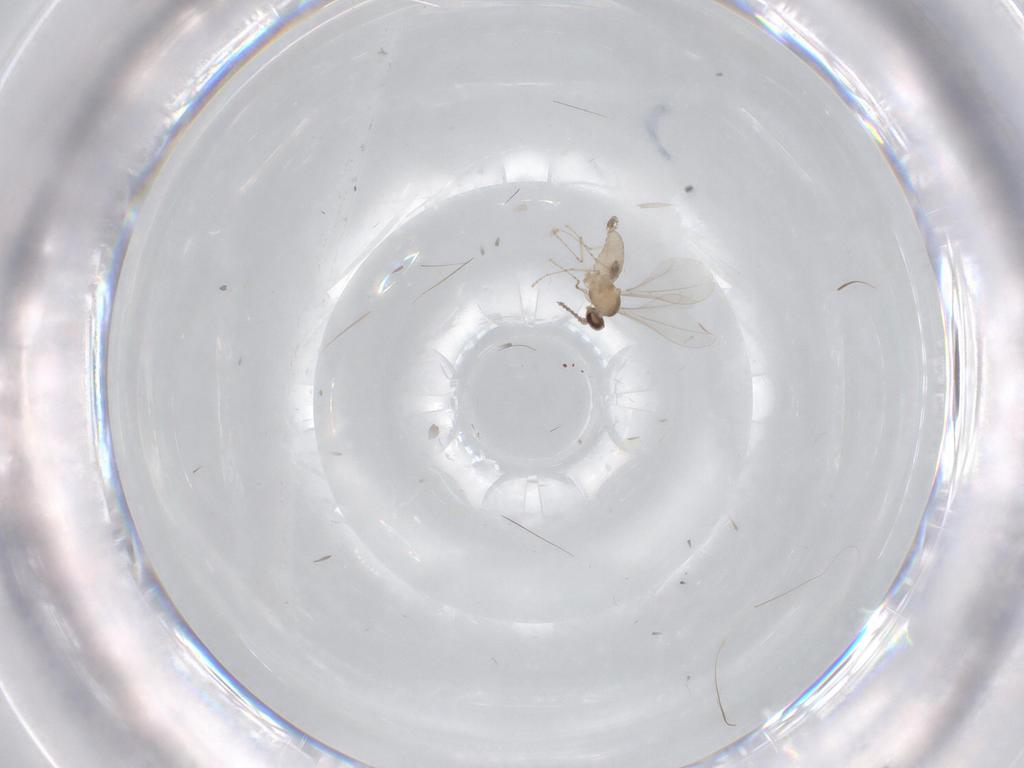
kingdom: Animalia
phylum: Arthropoda
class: Insecta
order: Diptera
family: Cecidomyiidae
